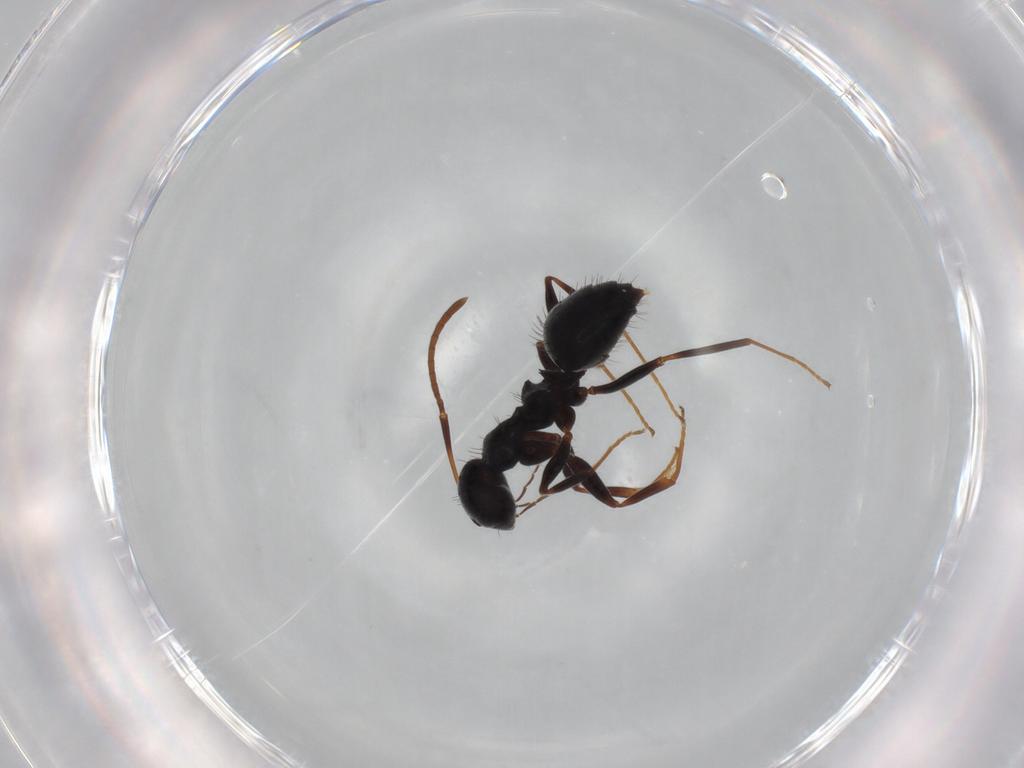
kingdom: Animalia
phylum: Arthropoda
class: Insecta
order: Hymenoptera
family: Formicidae
